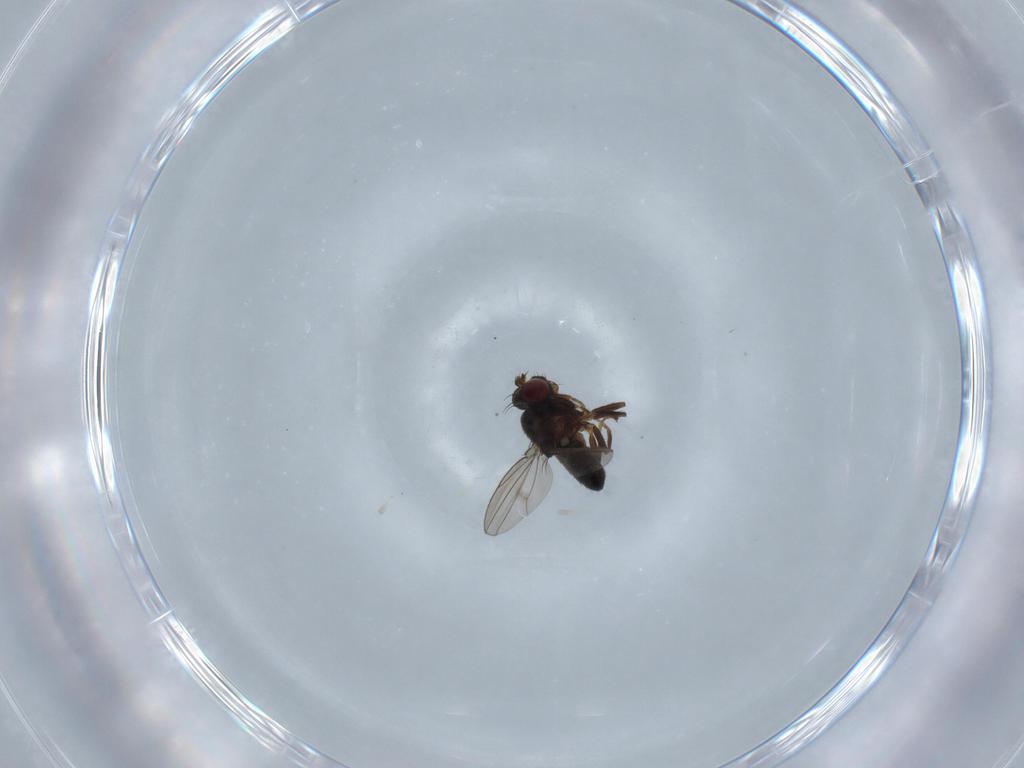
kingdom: Animalia
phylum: Arthropoda
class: Insecta
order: Diptera
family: Ephydridae
